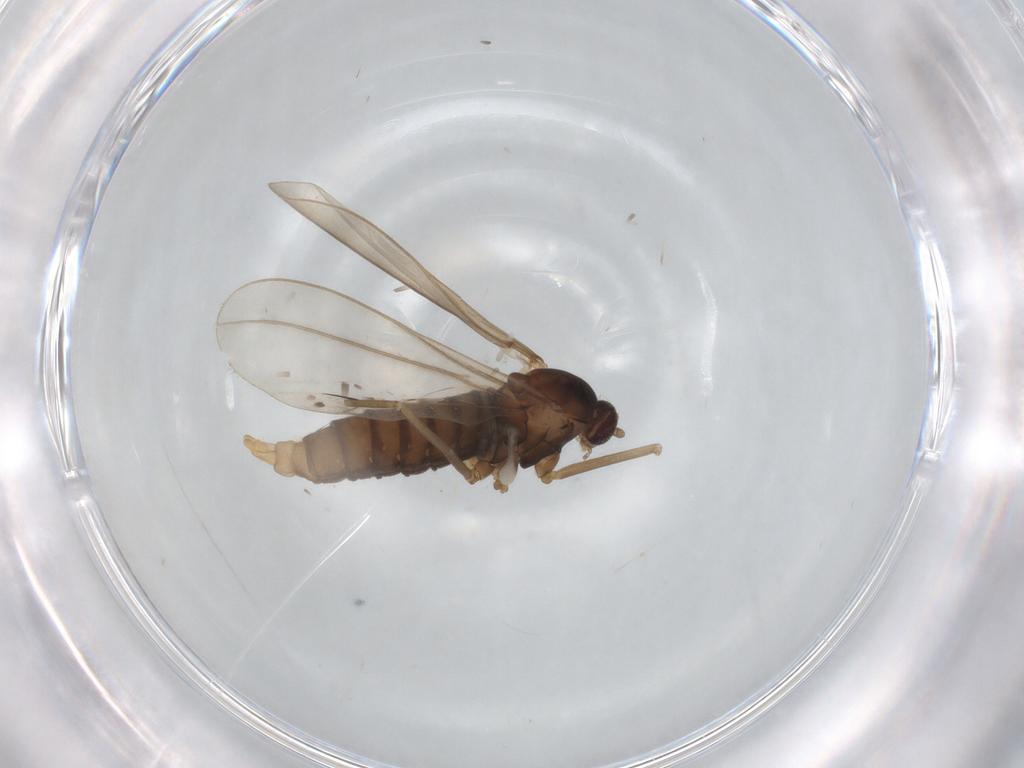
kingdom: Animalia
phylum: Arthropoda
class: Insecta
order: Diptera
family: Cecidomyiidae
